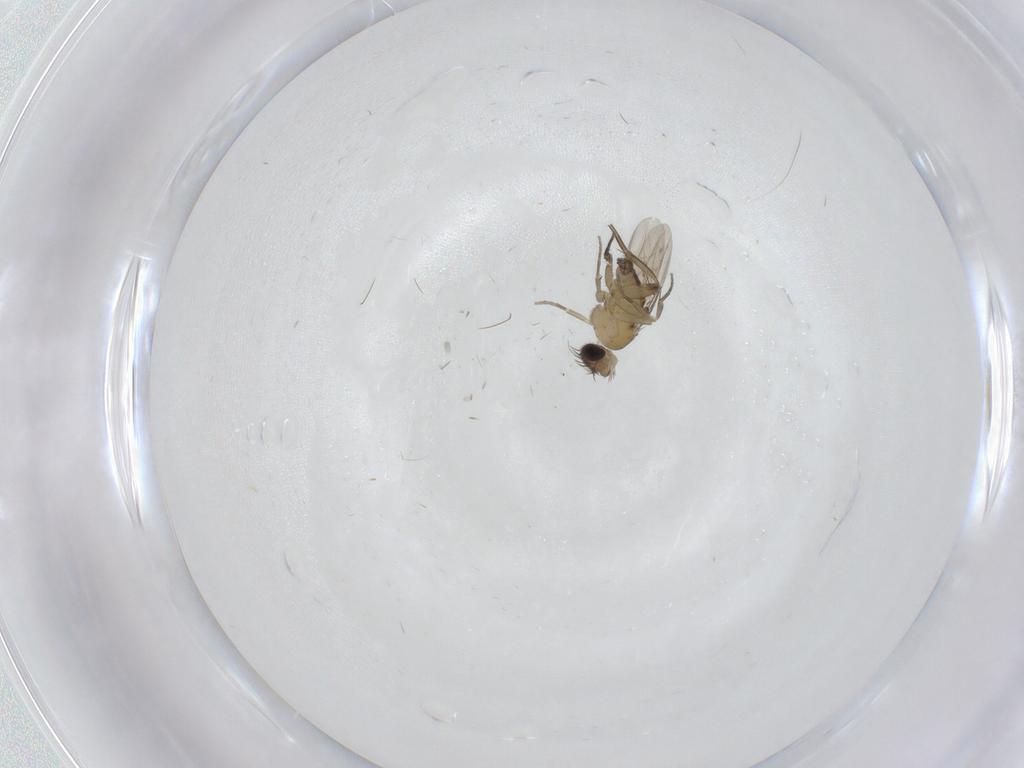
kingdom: Animalia
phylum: Arthropoda
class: Insecta
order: Diptera
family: Phoridae
